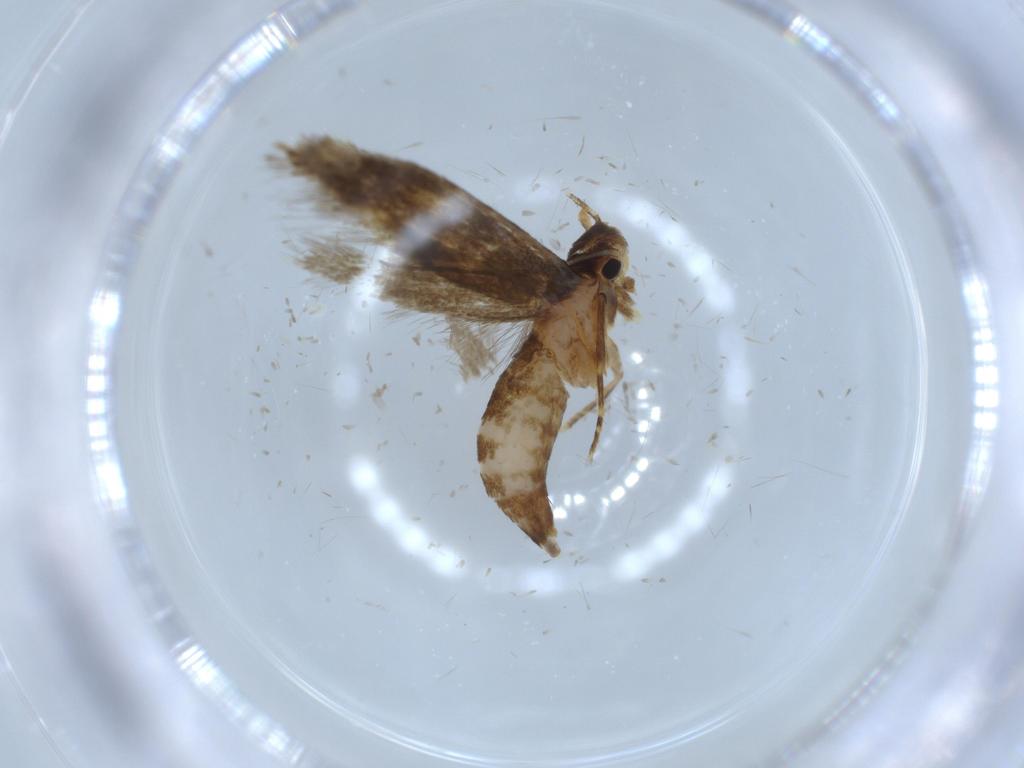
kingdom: Animalia
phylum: Arthropoda
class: Insecta
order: Lepidoptera
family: Tineidae
